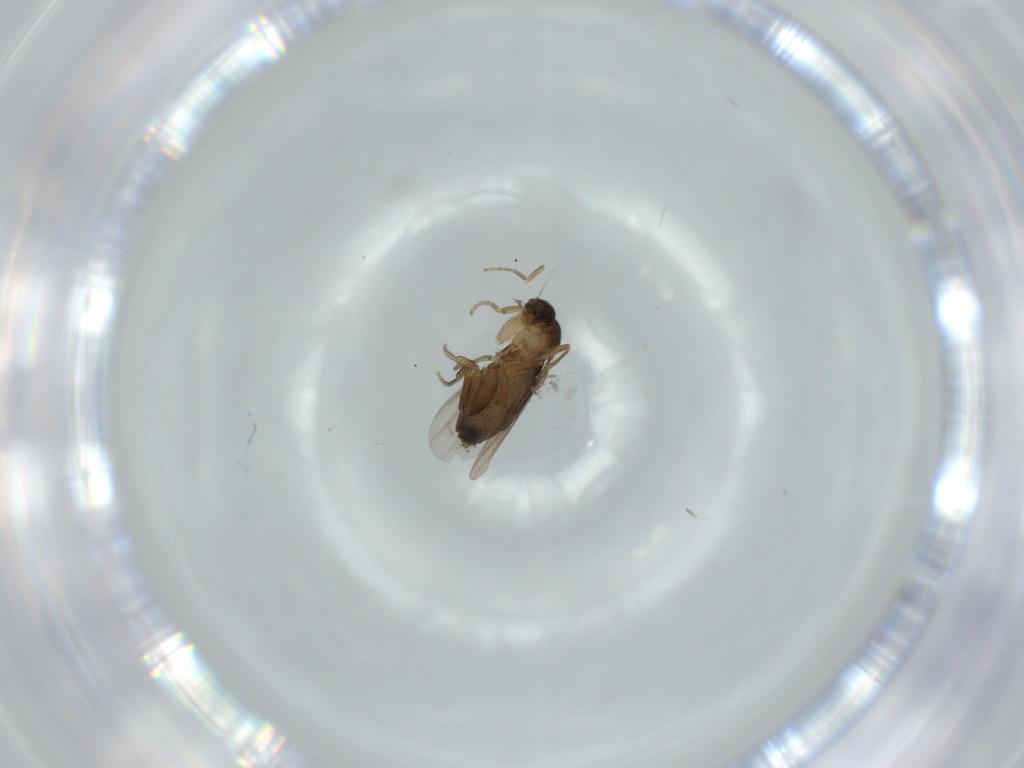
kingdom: Animalia
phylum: Arthropoda
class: Insecta
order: Diptera
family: Phoridae
